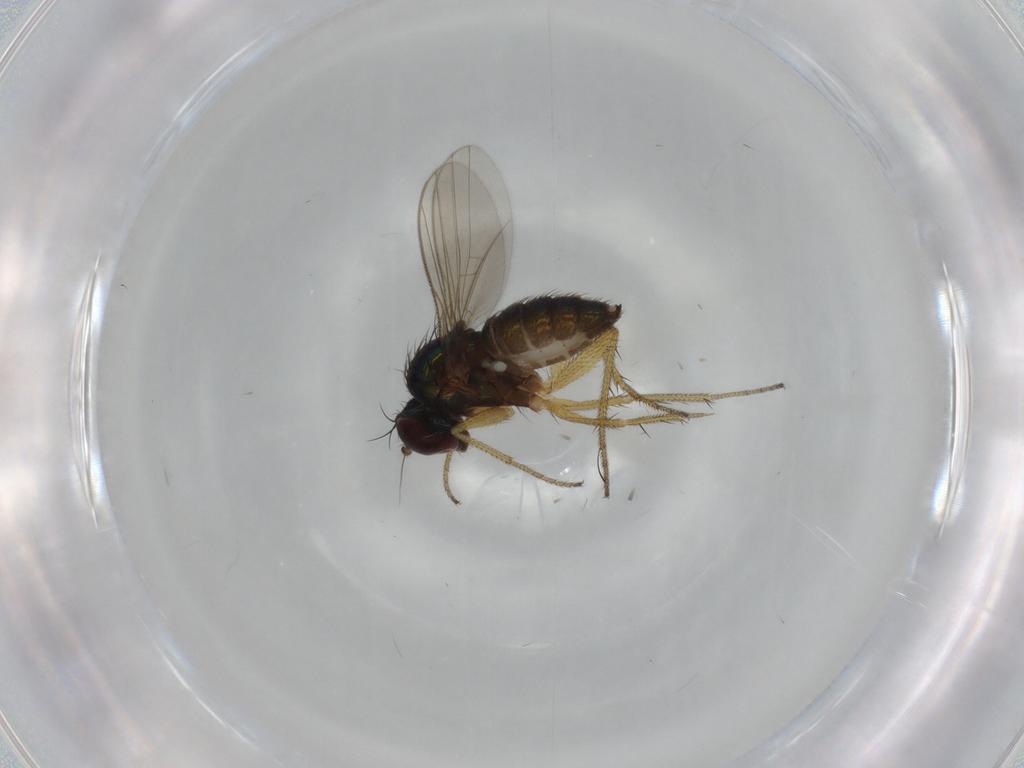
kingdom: Animalia
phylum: Arthropoda
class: Insecta
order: Diptera
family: Dolichopodidae
